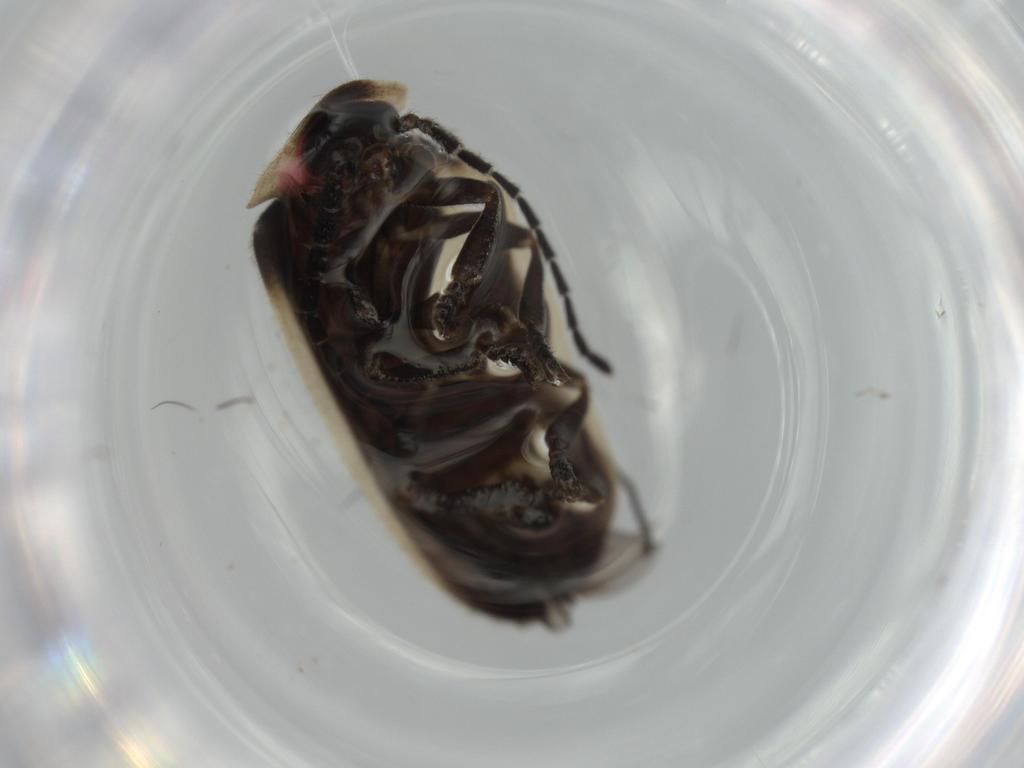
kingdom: Animalia
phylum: Arthropoda
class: Insecta
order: Coleoptera
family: Lampyridae
